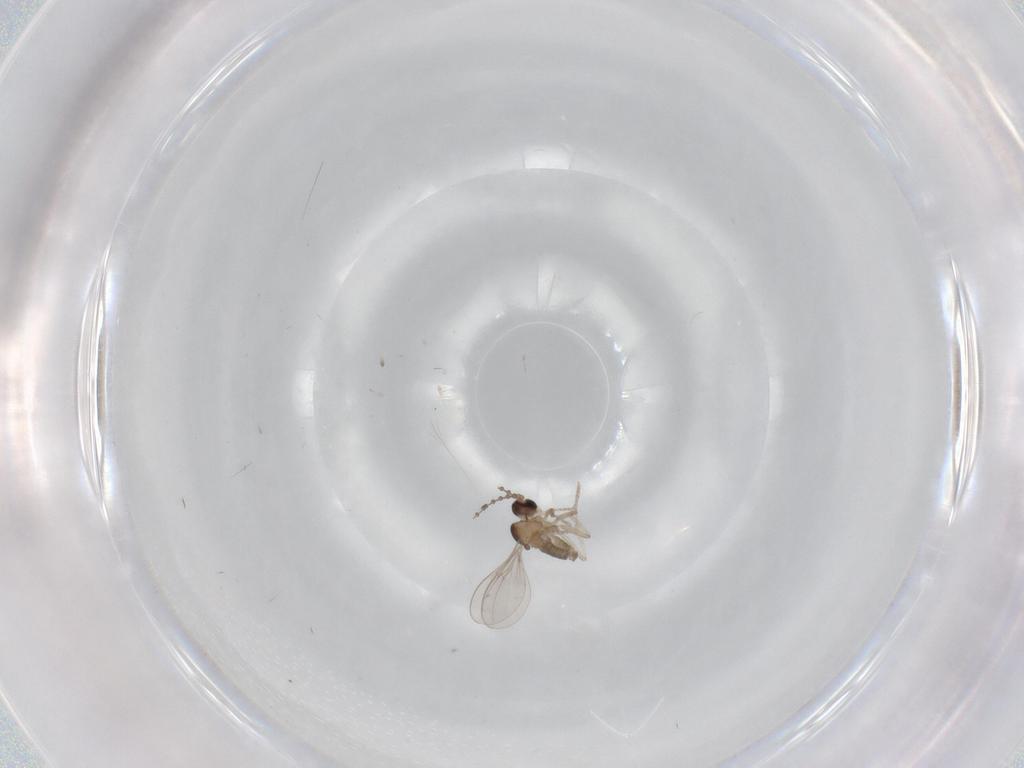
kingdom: Animalia
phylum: Arthropoda
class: Insecta
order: Diptera
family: Cecidomyiidae
